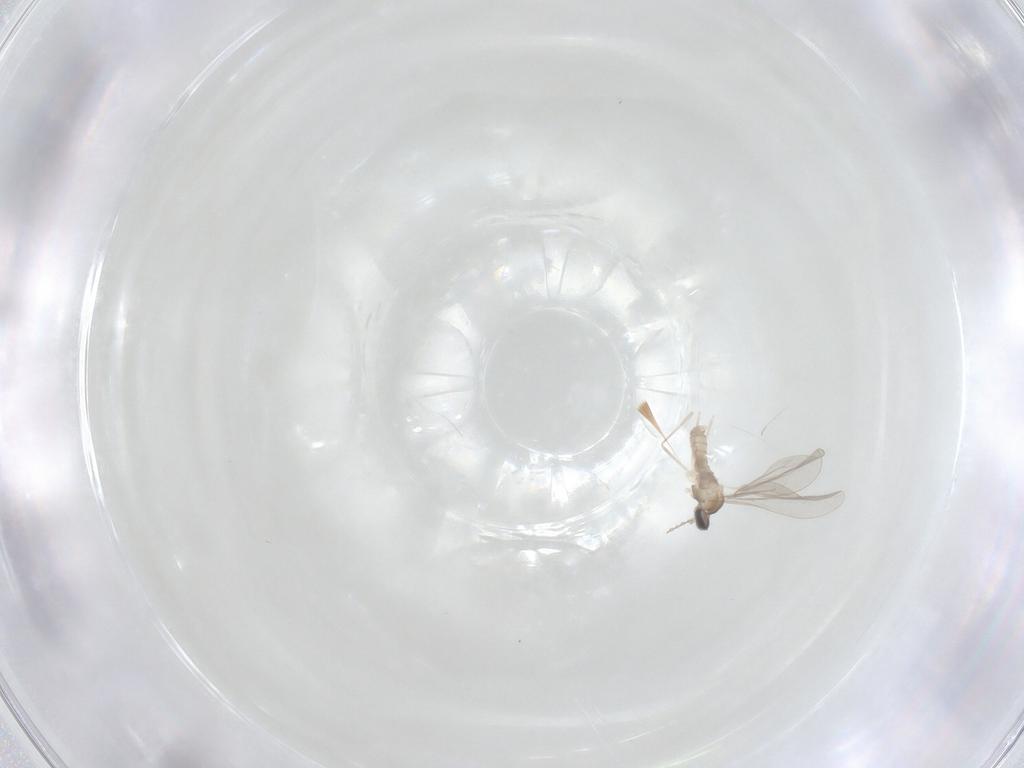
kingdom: Animalia
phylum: Arthropoda
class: Insecta
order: Diptera
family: Cecidomyiidae
